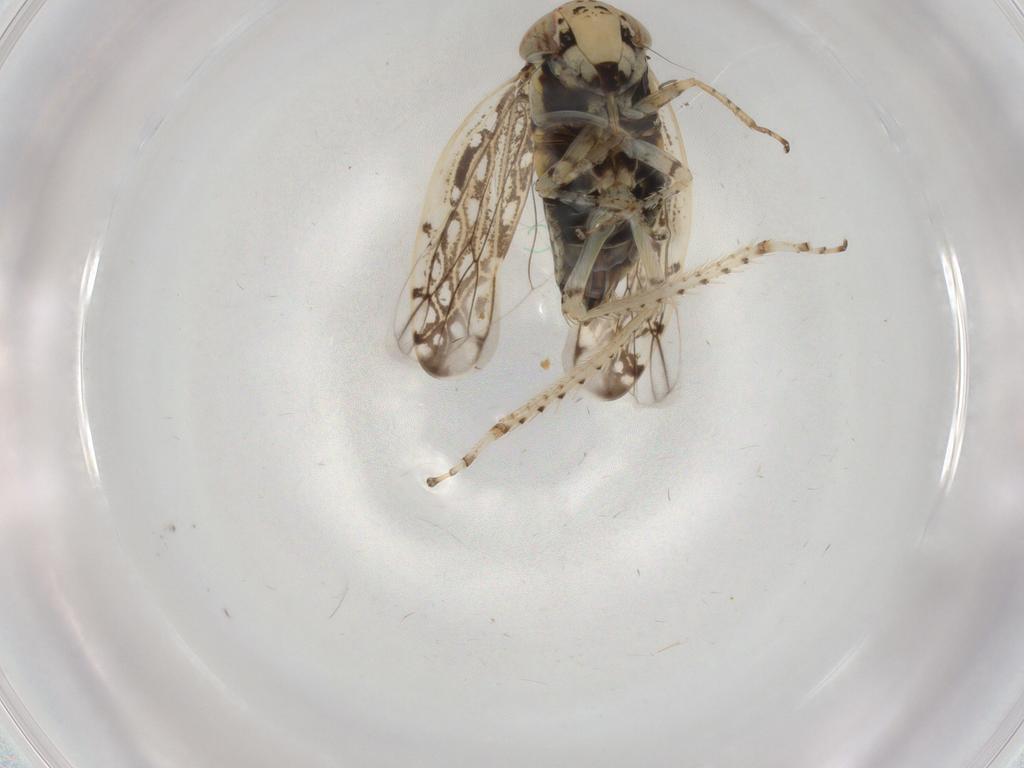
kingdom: Animalia
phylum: Arthropoda
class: Insecta
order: Hemiptera
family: Cicadellidae
